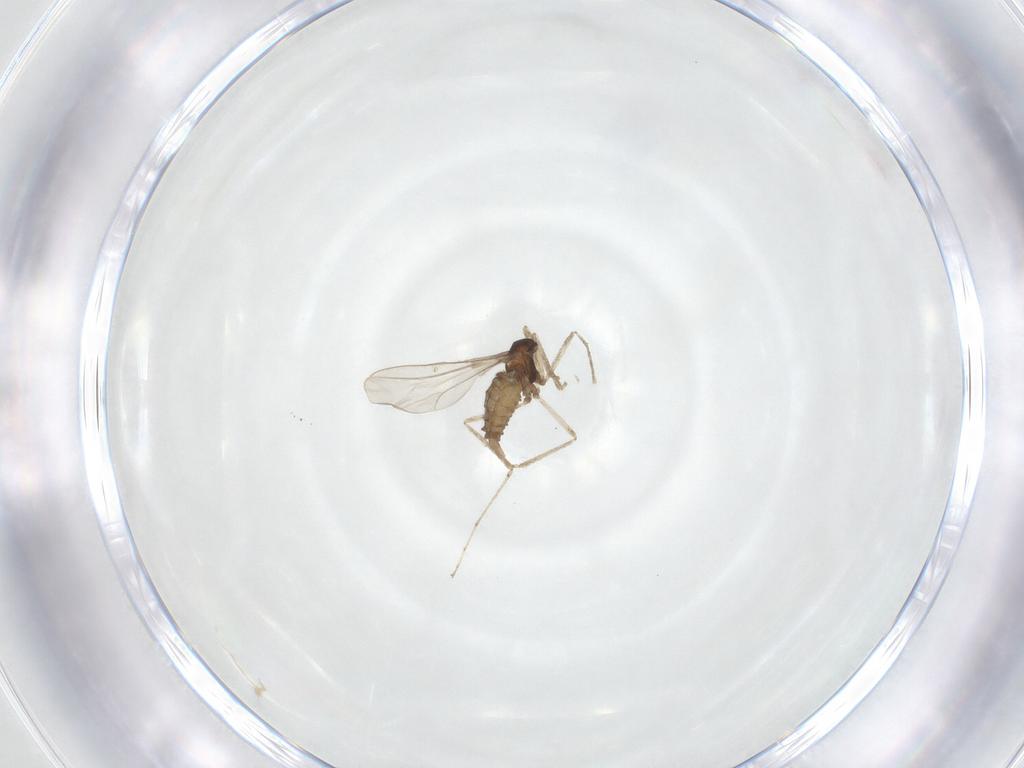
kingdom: Animalia
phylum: Arthropoda
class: Insecta
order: Diptera
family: Cecidomyiidae
